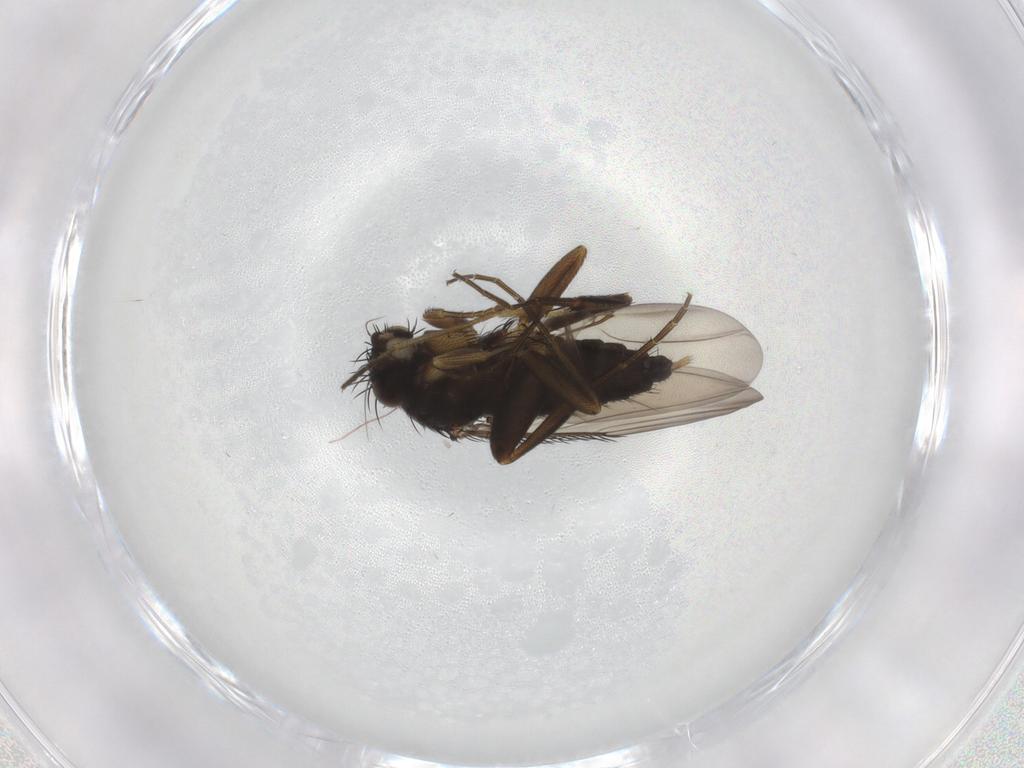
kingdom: Animalia
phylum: Arthropoda
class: Insecta
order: Diptera
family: Phoridae
